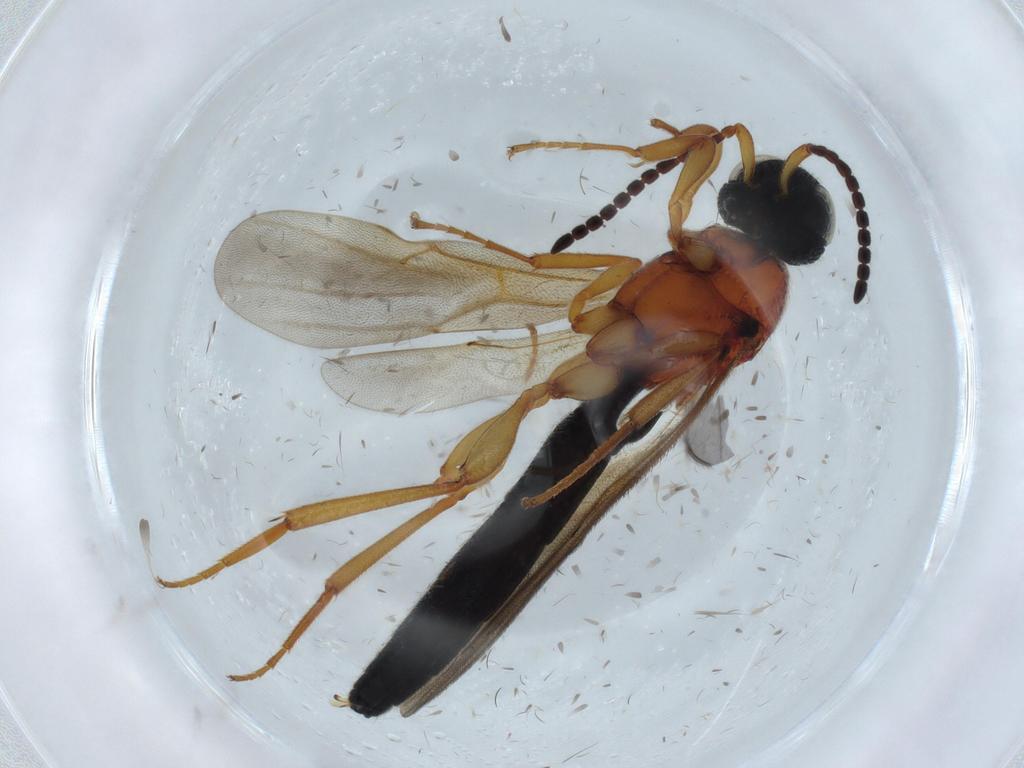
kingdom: Animalia
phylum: Arthropoda
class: Insecta
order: Hymenoptera
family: Scelionidae
